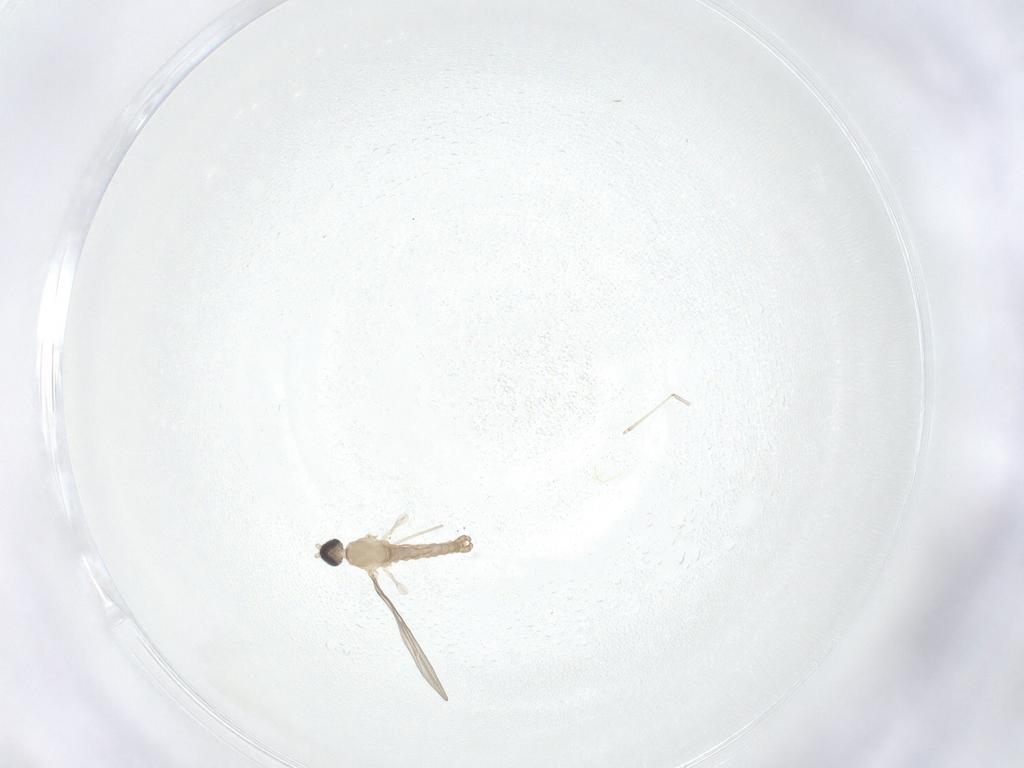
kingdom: Animalia
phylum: Arthropoda
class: Insecta
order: Diptera
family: Cecidomyiidae
